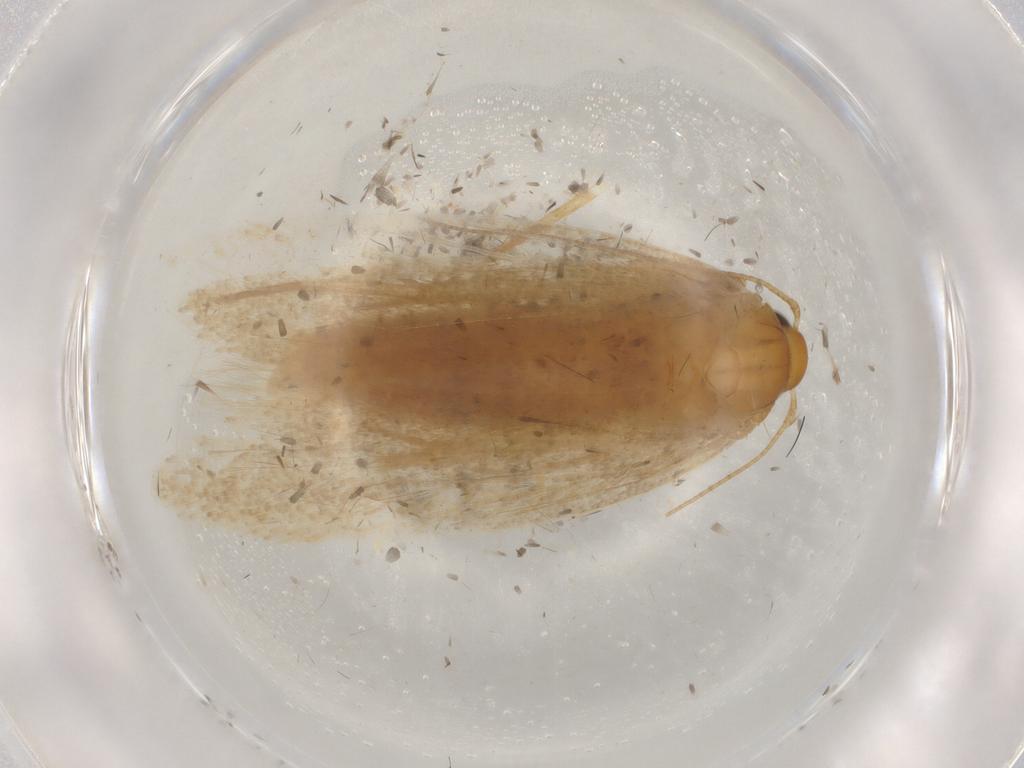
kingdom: Animalia
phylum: Arthropoda
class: Insecta
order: Lepidoptera
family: Gelechiidae
